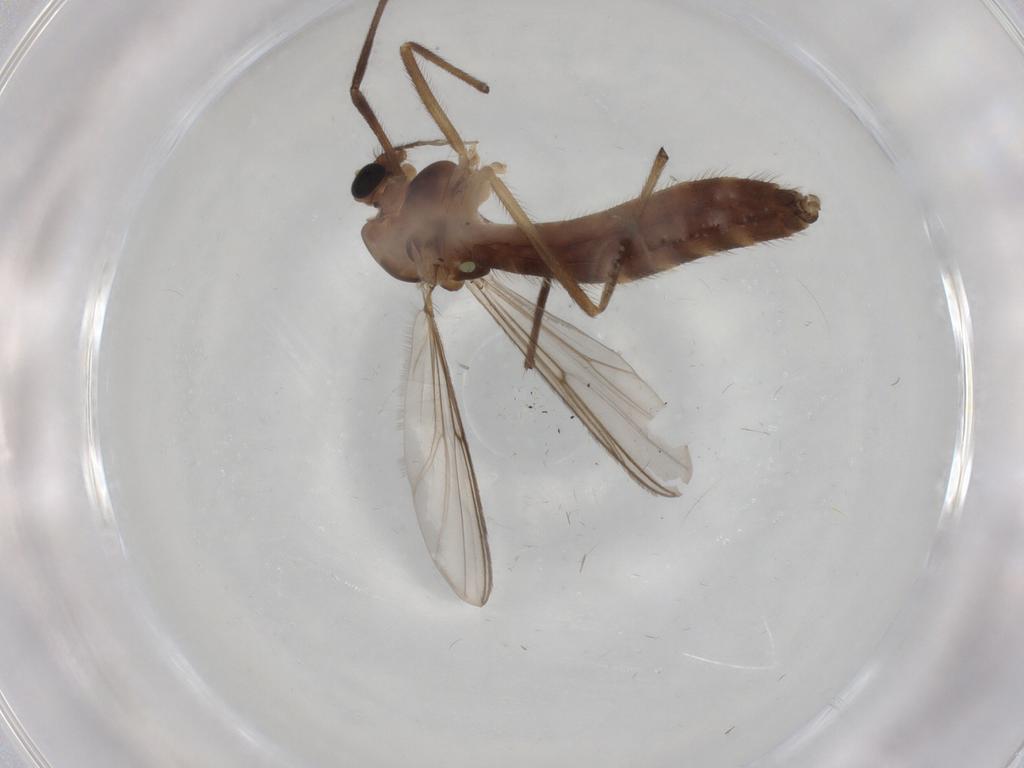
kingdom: Animalia
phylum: Arthropoda
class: Insecta
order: Diptera
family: Chironomidae
